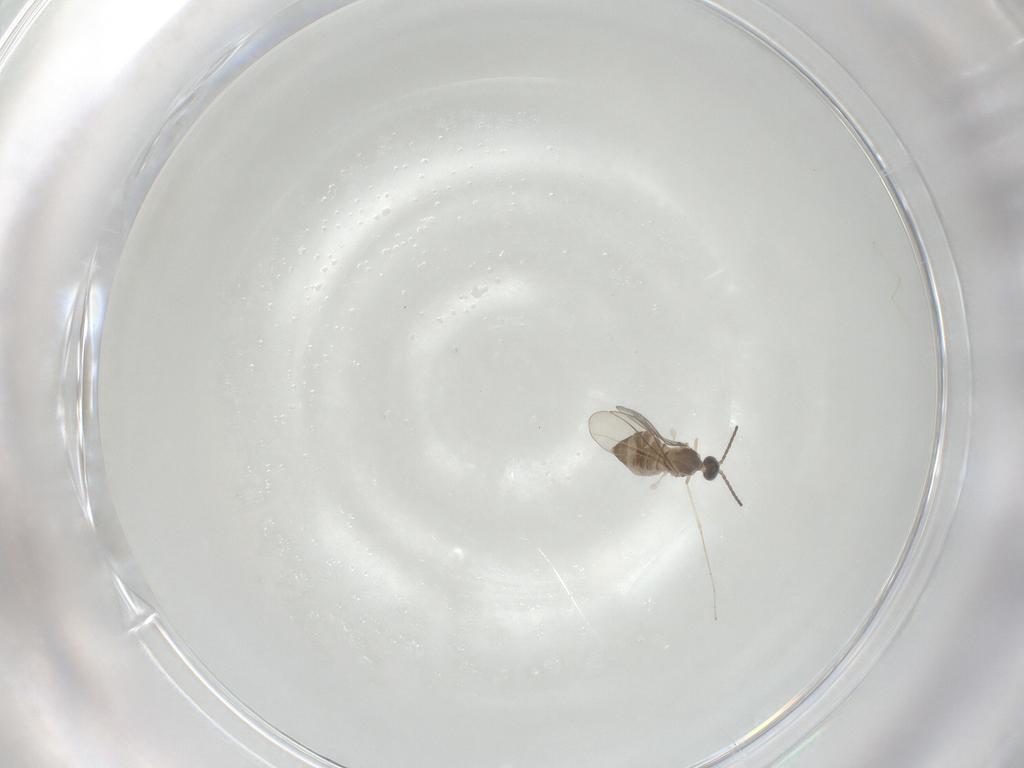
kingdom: Animalia
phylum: Arthropoda
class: Insecta
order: Diptera
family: Ceratopogonidae
